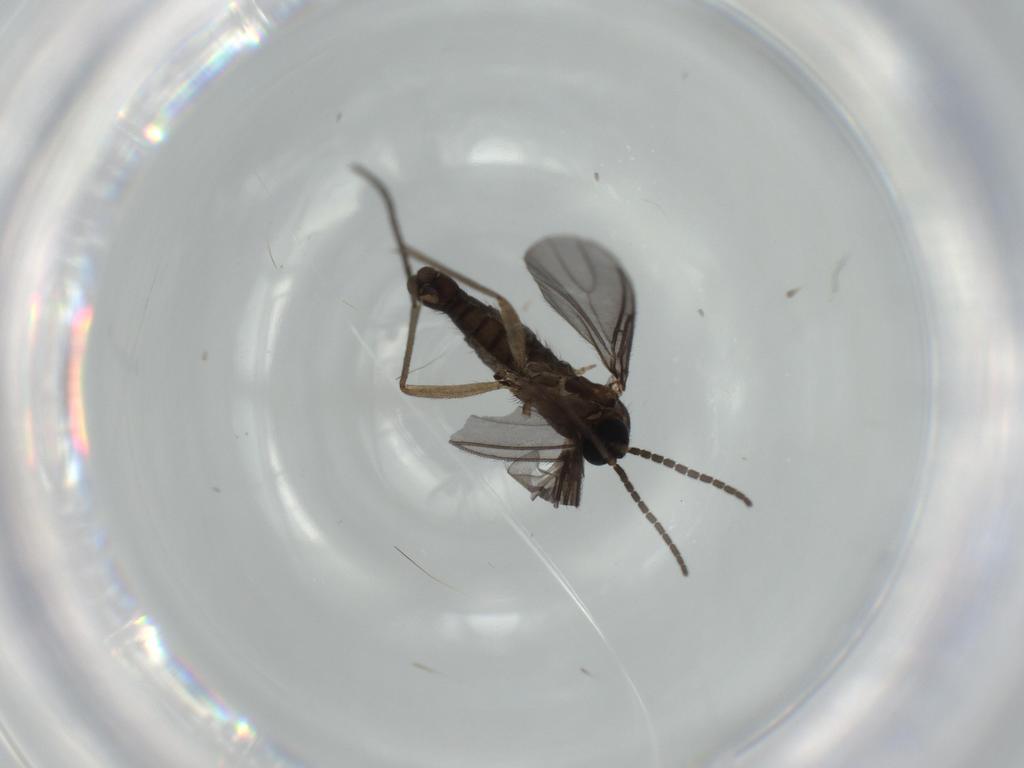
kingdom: Animalia
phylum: Arthropoda
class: Insecta
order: Diptera
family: Sciaridae
